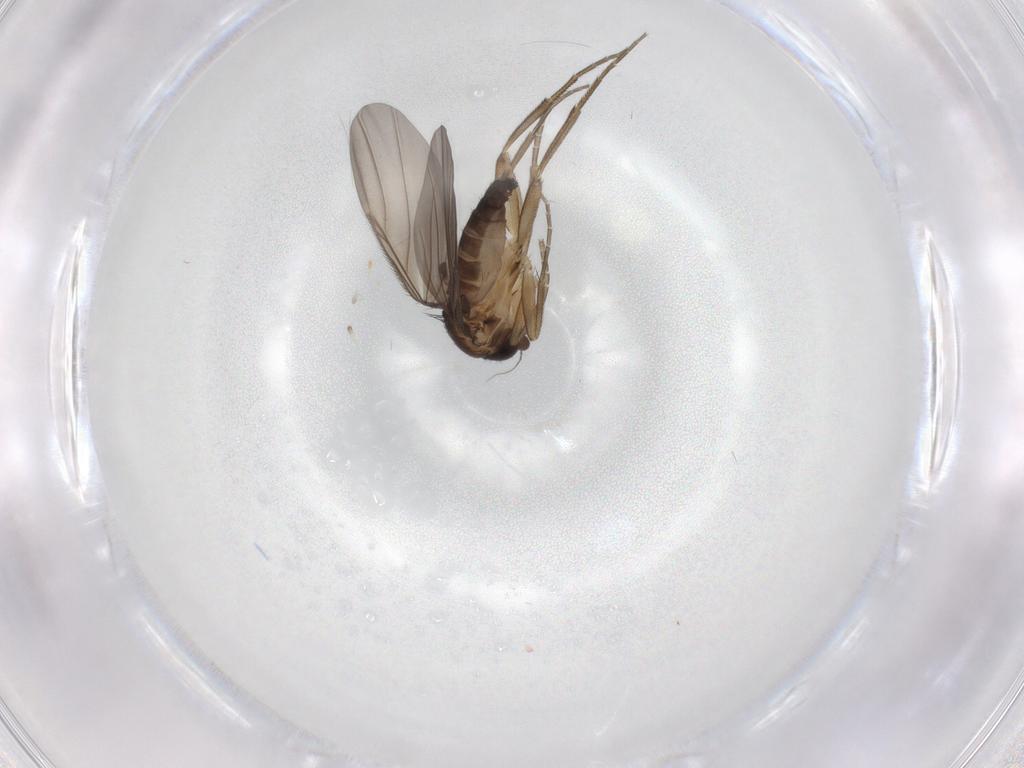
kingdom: Animalia
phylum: Arthropoda
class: Insecta
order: Diptera
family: Phoridae
